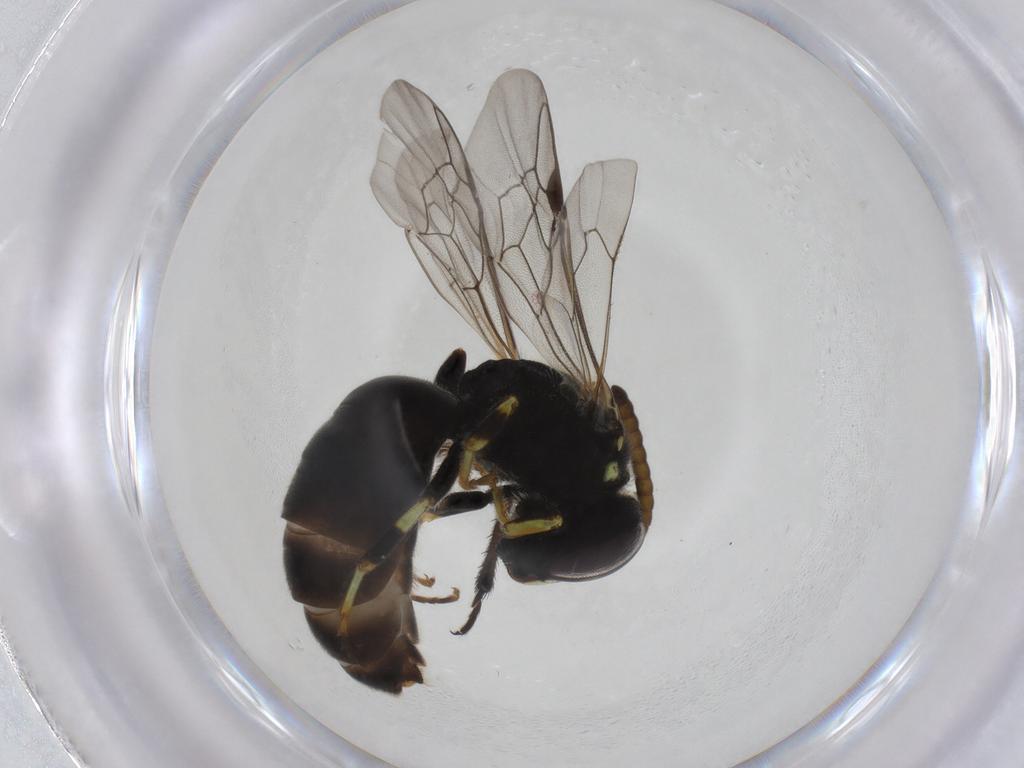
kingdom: Animalia
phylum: Arthropoda
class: Insecta
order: Hymenoptera
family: Colletidae
